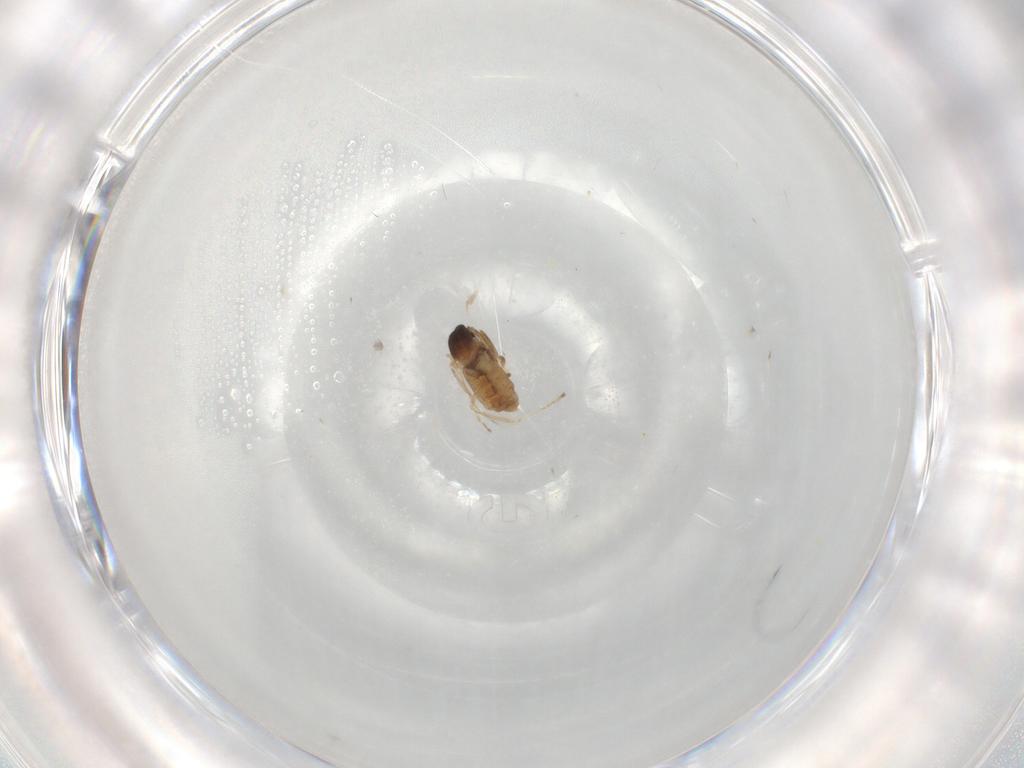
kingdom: Animalia
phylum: Arthropoda
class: Insecta
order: Diptera
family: Cecidomyiidae
